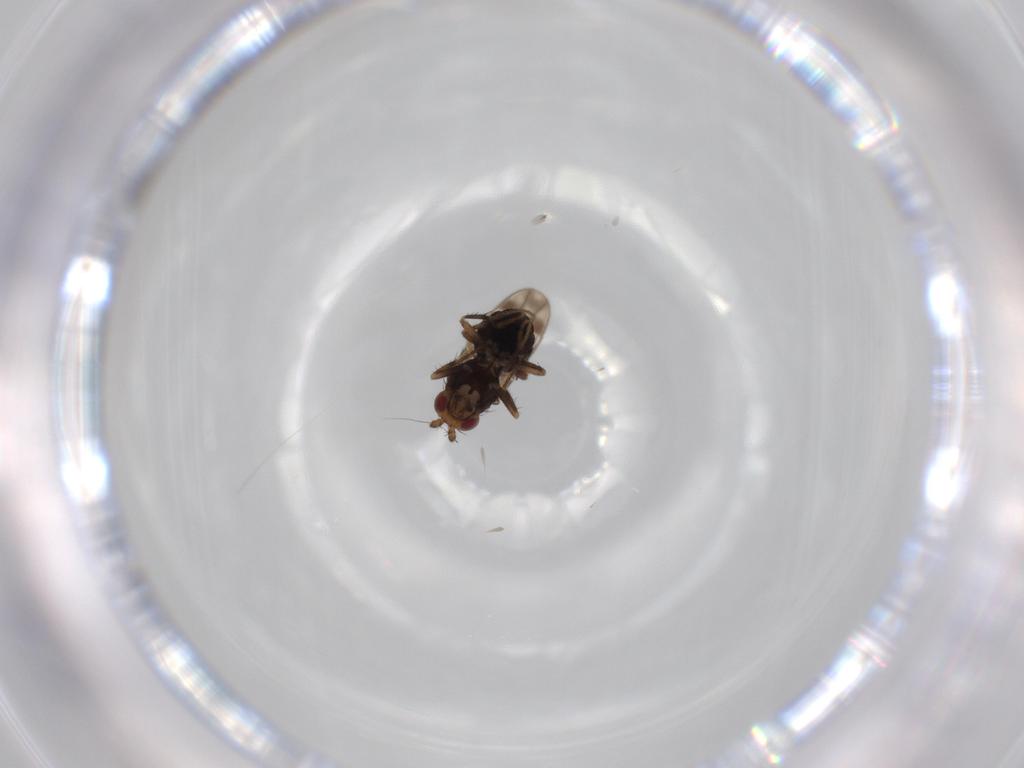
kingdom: Animalia
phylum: Arthropoda
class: Insecta
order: Diptera
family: Sphaeroceridae
